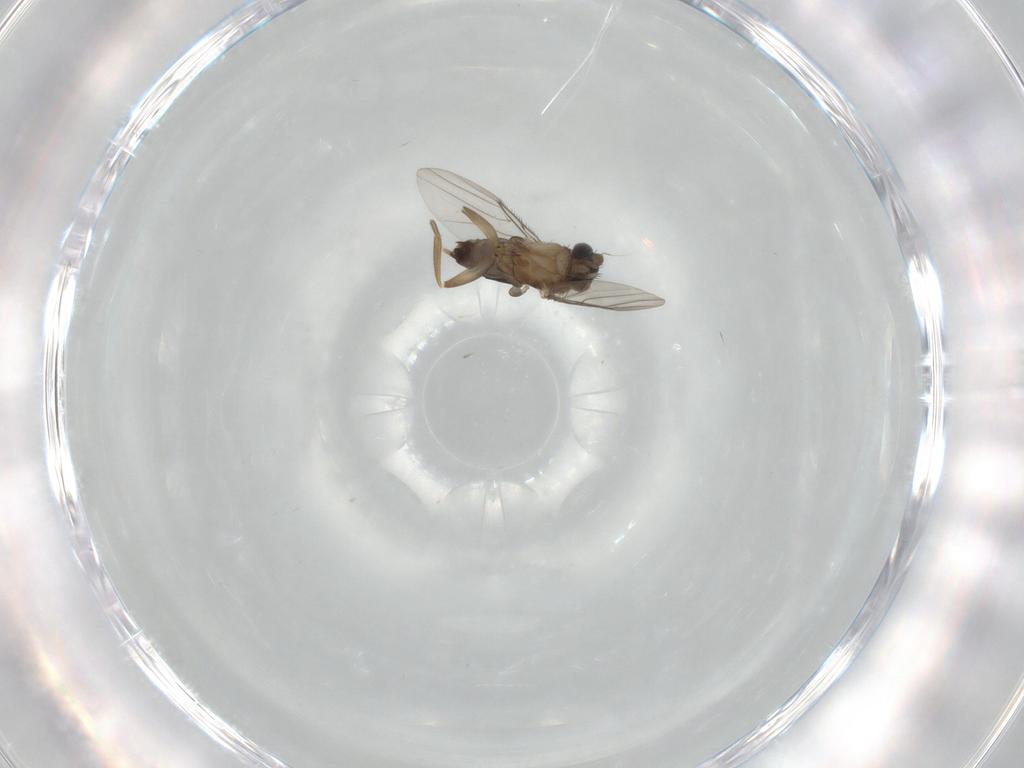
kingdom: Animalia
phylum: Arthropoda
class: Insecta
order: Diptera
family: Phoridae
